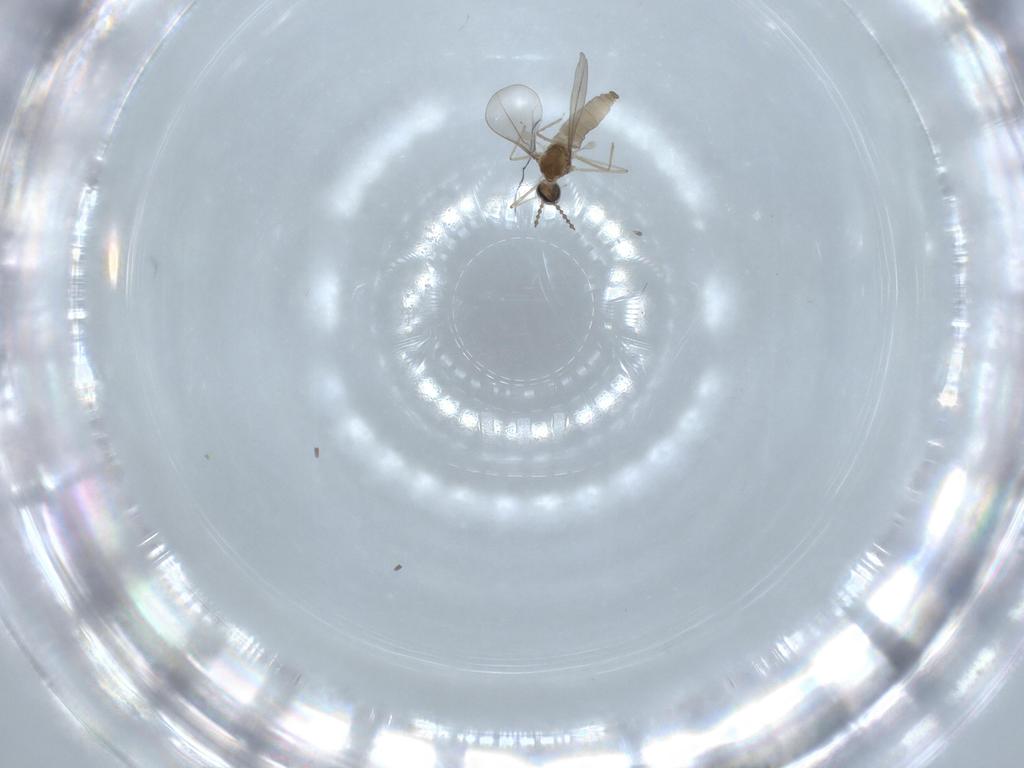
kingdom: Animalia
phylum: Arthropoda
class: Insecta
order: Diptera
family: Cecidomyiidae
